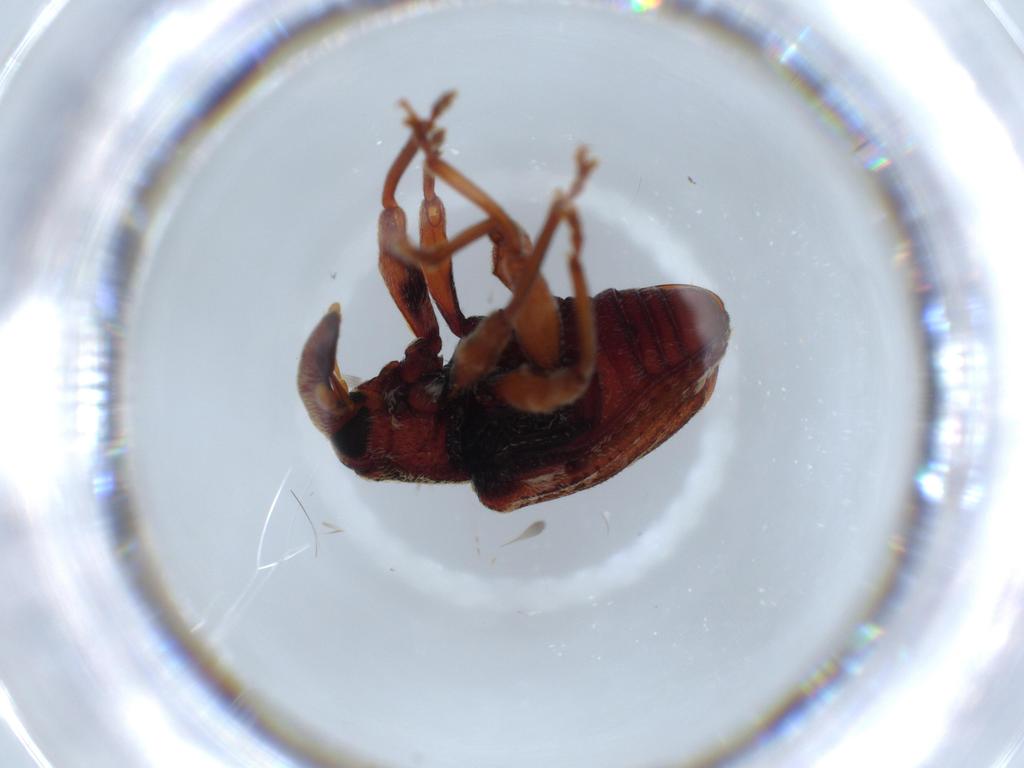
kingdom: Animalia
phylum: Arthropoda
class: Insecta
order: Coleoptera
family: Curculionidae
